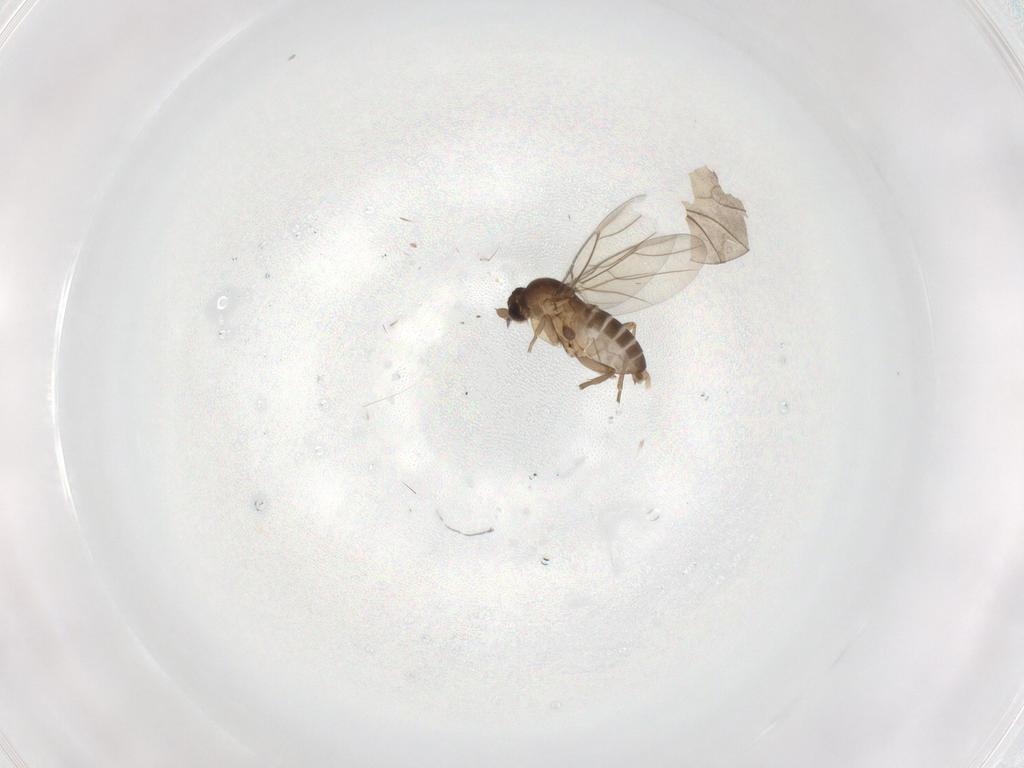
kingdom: Animalia
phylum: Arthropoda
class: Insecta
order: Diptera
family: Cecidomyiidae
